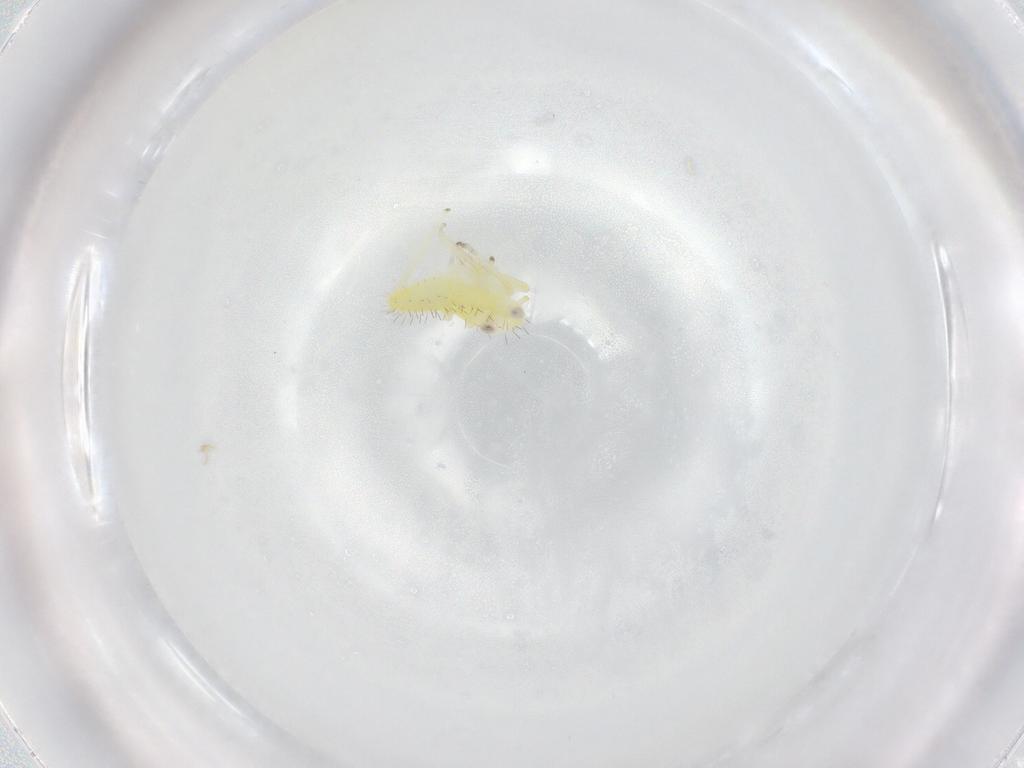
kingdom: Animalia
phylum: Arthropoda
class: Insecta
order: Hemiptera
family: Cicadellidae
